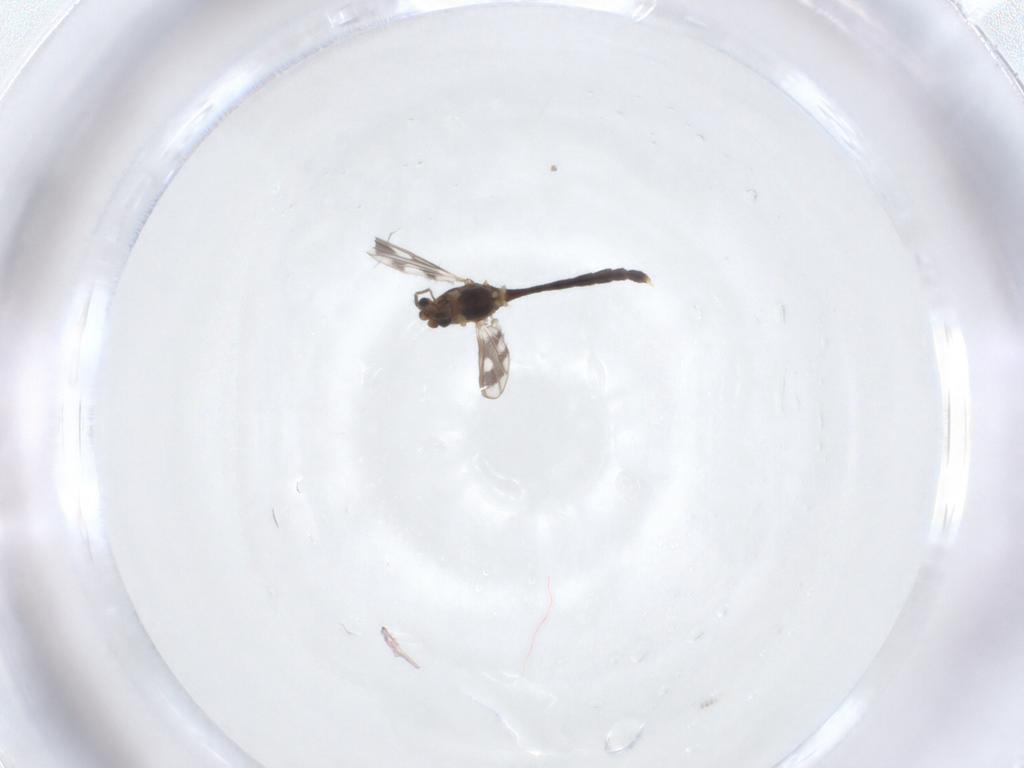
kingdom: Animalia
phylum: Arthropoda
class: Insecta
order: Diptera
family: Chironomidae
